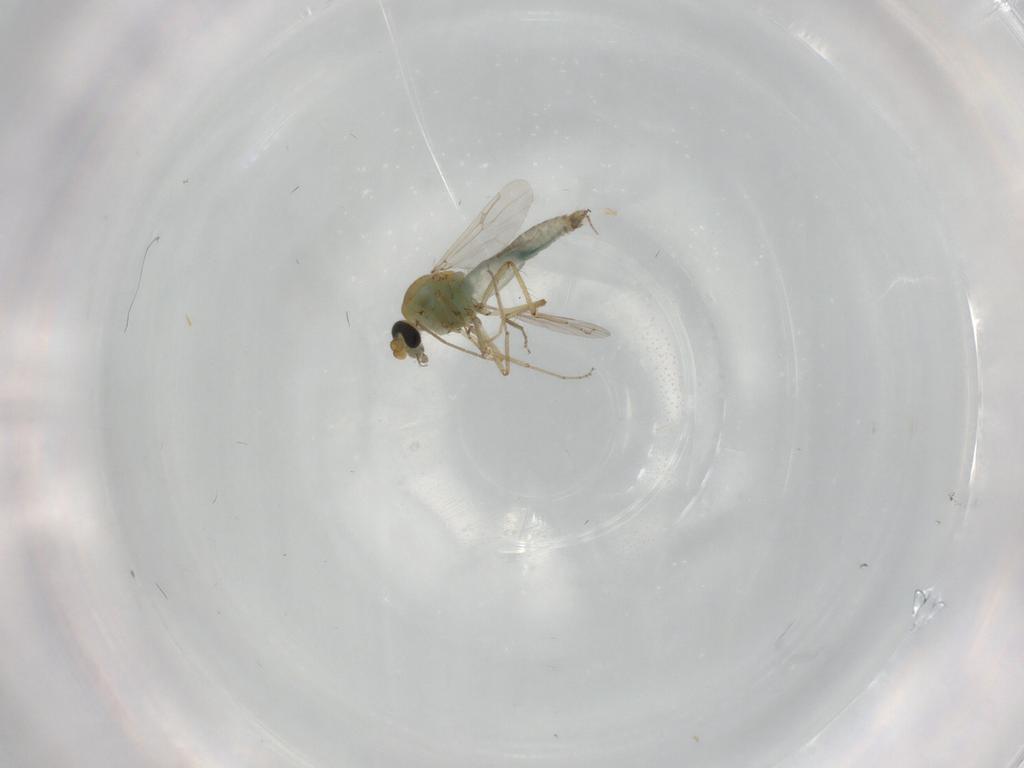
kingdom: Animalia
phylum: Arthropoda
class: Insecta
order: Diptera
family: Ceratopogonidae
